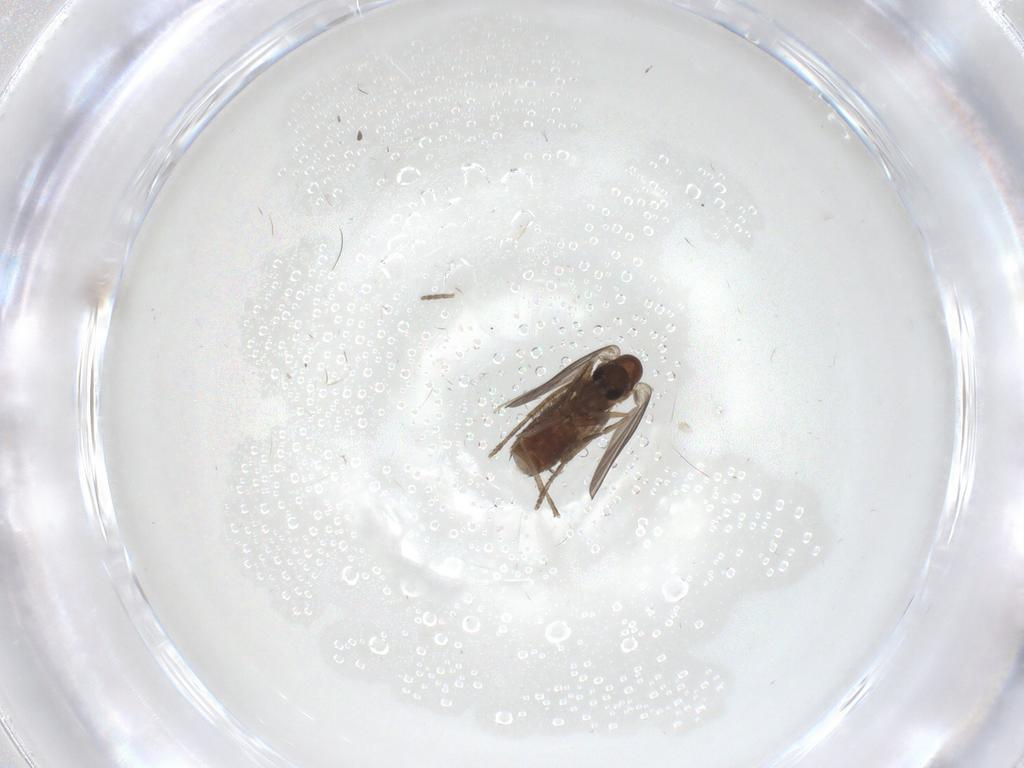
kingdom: Animalia
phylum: Arthropoda
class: Insecta
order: Diptera
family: Chironomidae
